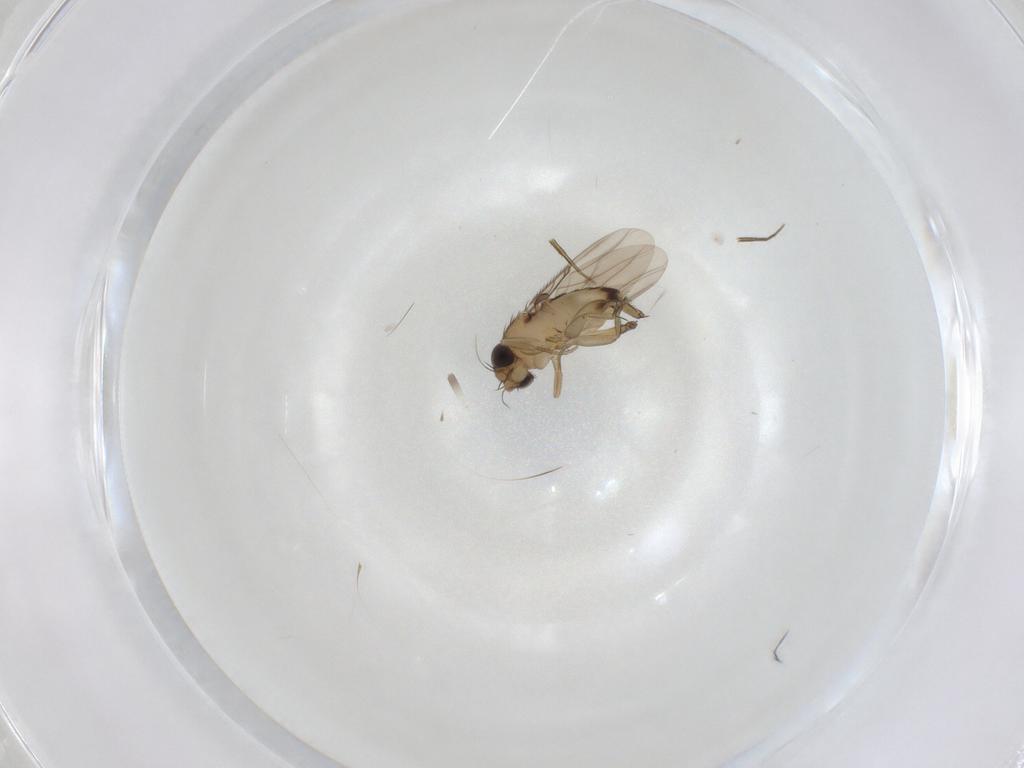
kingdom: Animalia
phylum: Arthropoda
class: Insecta
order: Diptera
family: Phoridae
